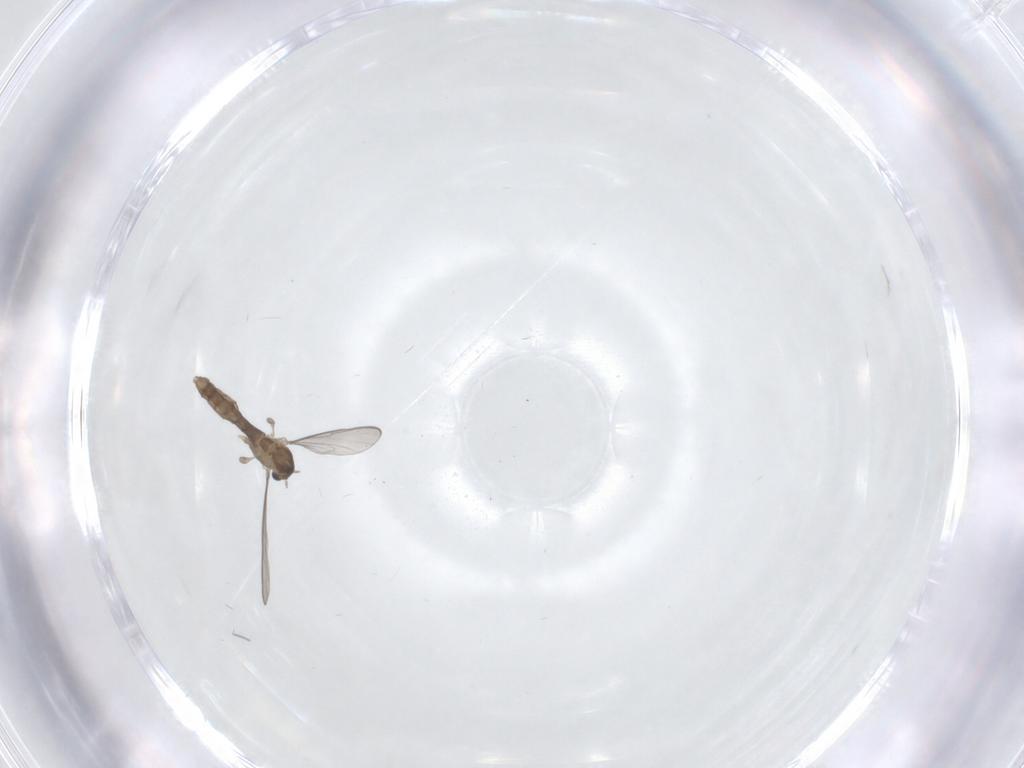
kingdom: Animalia
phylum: Arthropoda
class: Insecta
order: Diptera
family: Chironomidae
